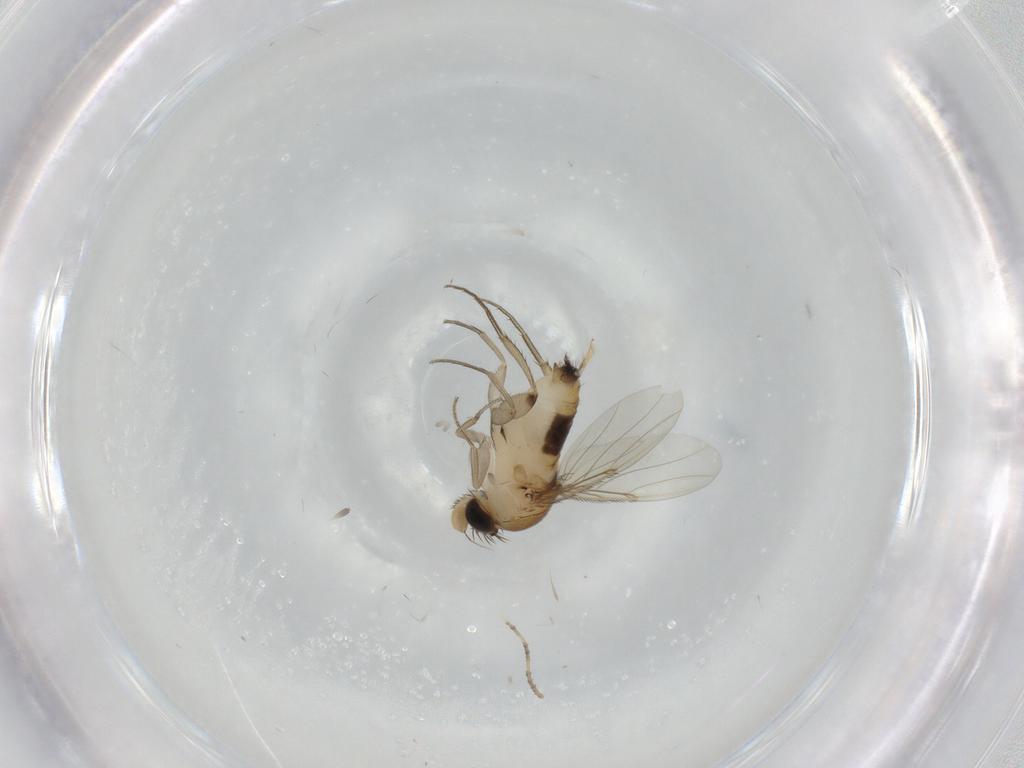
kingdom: Animalia
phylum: Arthropoda
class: Insecta
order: Diptera
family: Phoridae
